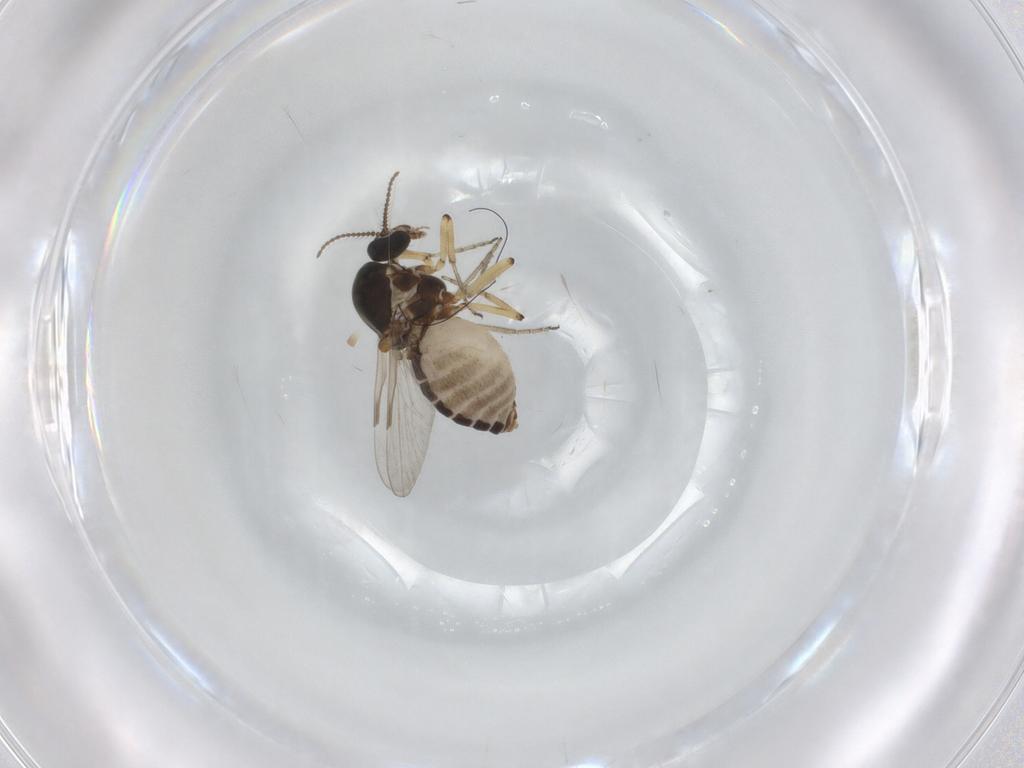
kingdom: Animalia
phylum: Arthropoda
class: Insecta
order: Diptera
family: Ceratopogonidae
